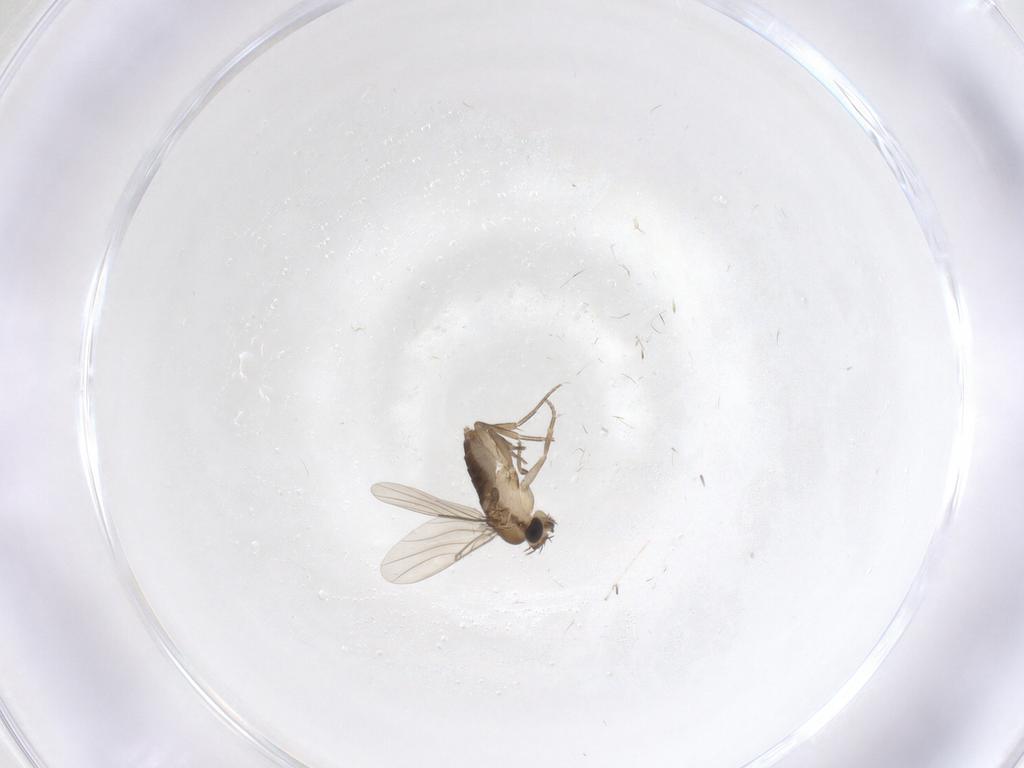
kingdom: Animalia
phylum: Arthropoda
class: Insecta
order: Diptera
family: Phoridae
